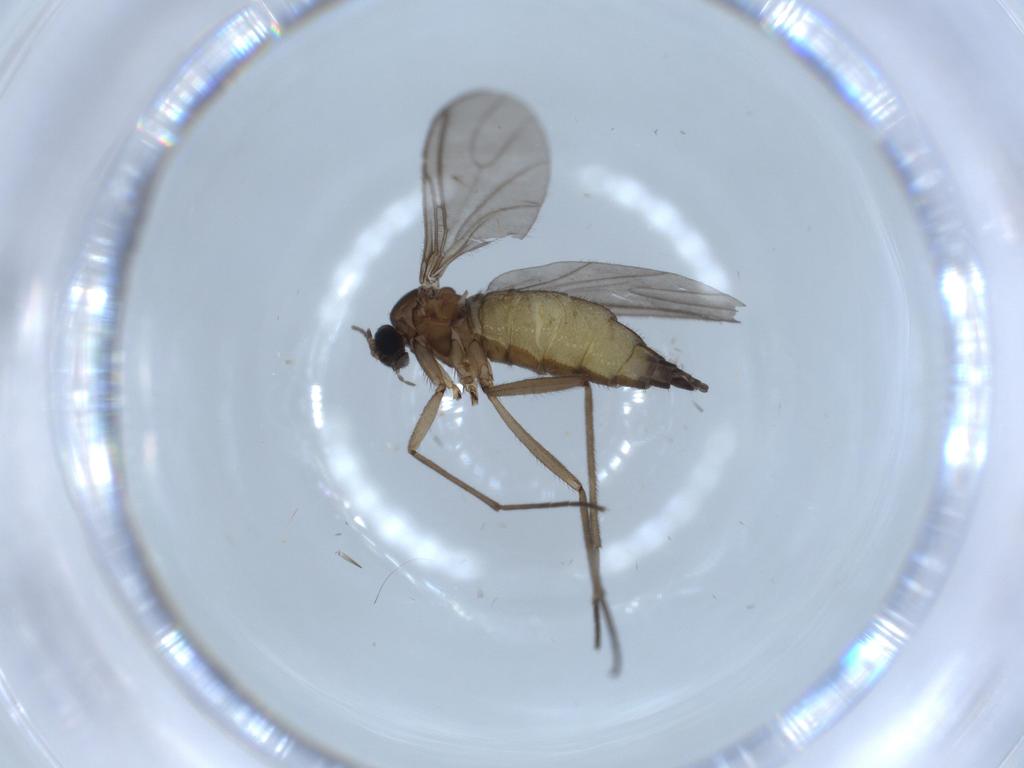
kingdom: Animalia
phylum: Arthropoda
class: Insecta
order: Diptera
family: Sciaridae
